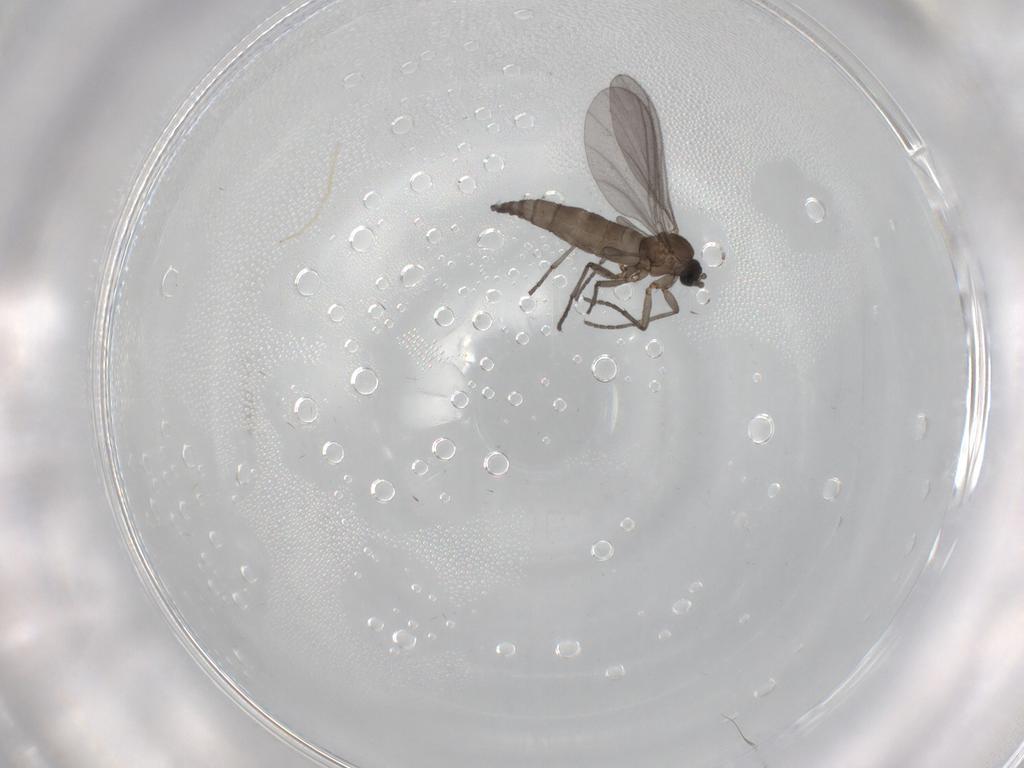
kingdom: Animalia
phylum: Arthropoda
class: Insecta
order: Diptera
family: Sciaridae
